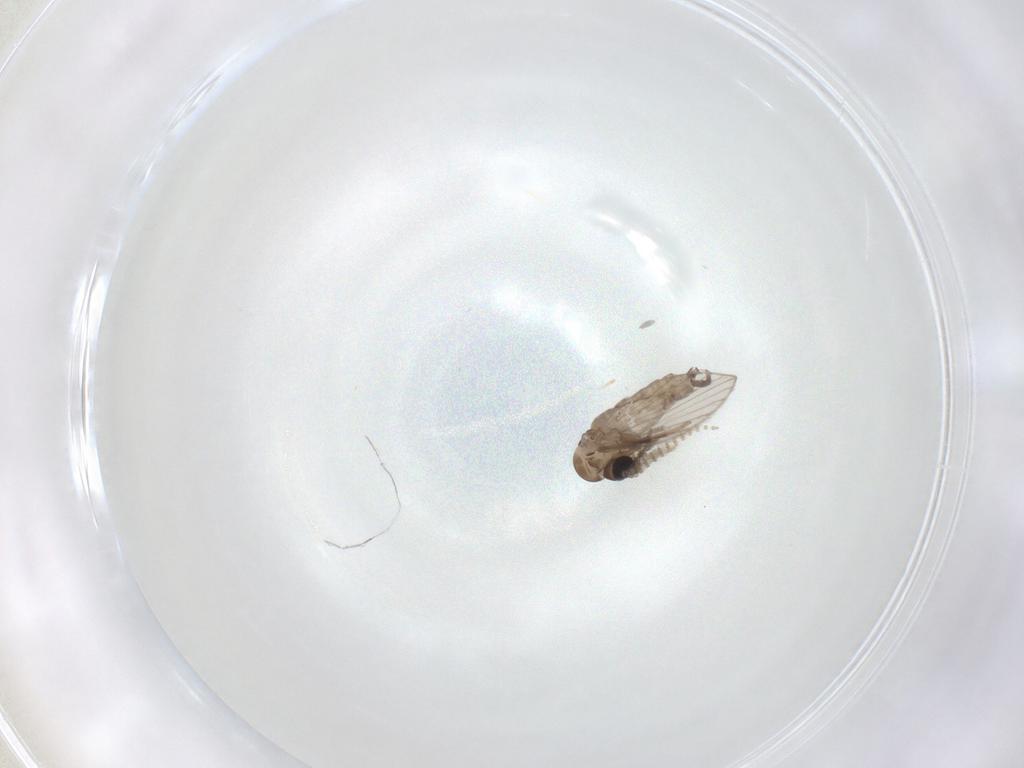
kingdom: Animalia
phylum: Arthropoda
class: Insecta
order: Diptera
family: Psychodidae
